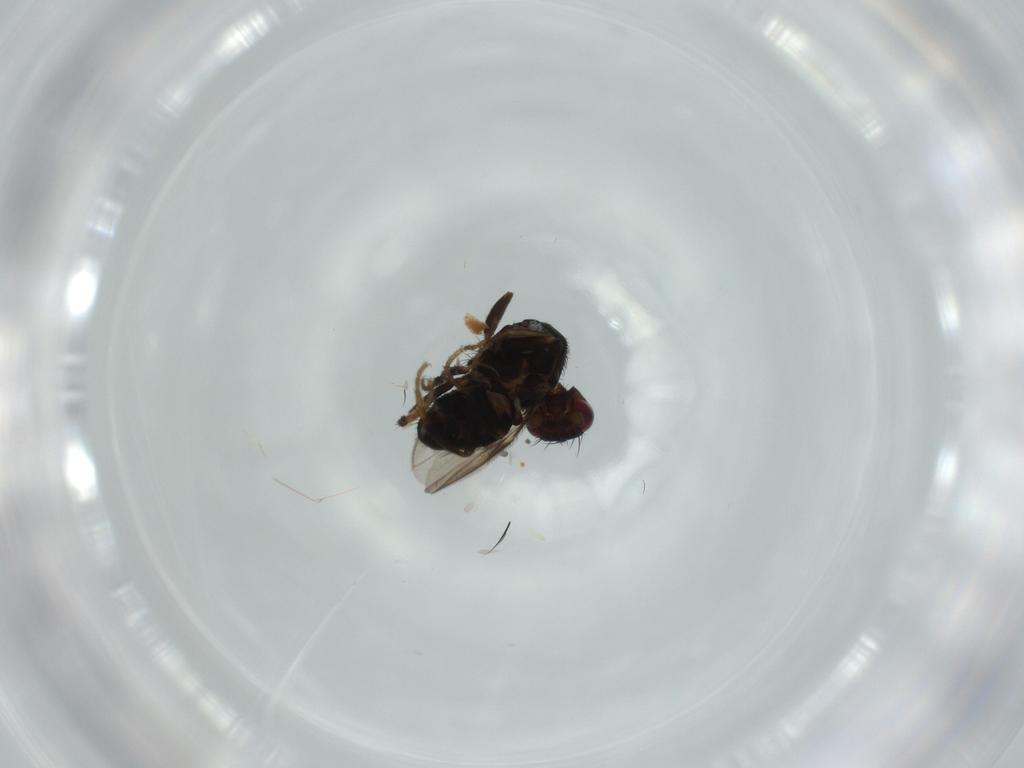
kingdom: Animalia
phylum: Arthropoda
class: Insecta
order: Diptera
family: Sphaeroceridae
